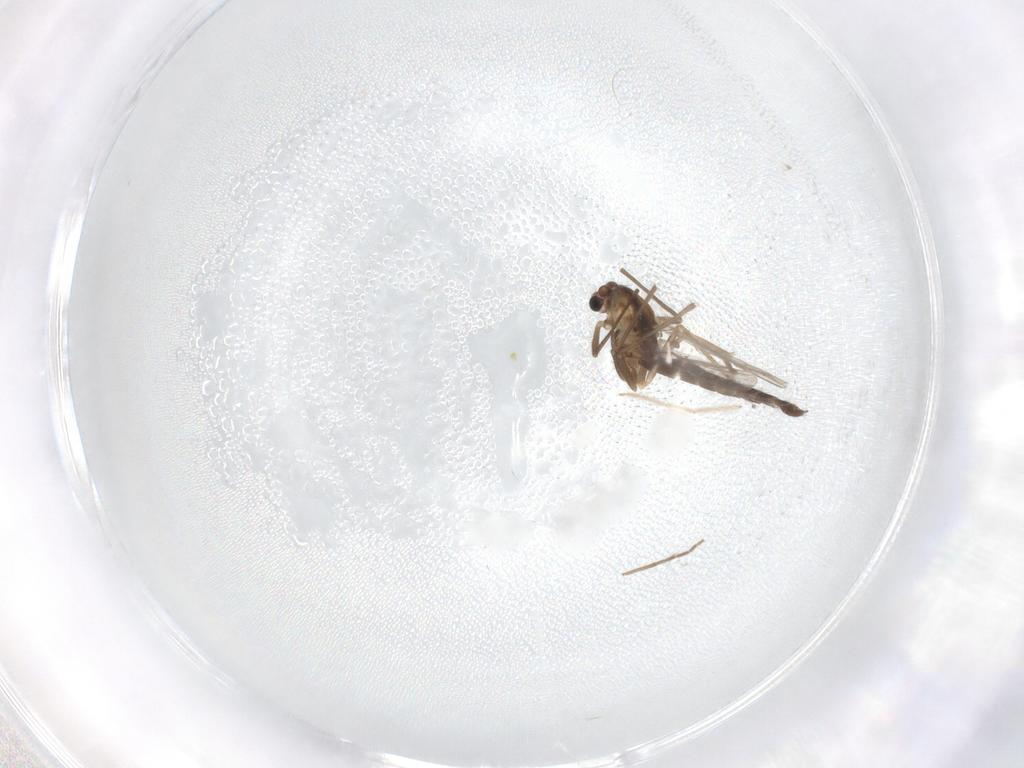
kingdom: Animalia
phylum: Arthropoda
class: Insecta
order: Diptera
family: Chironomidae
